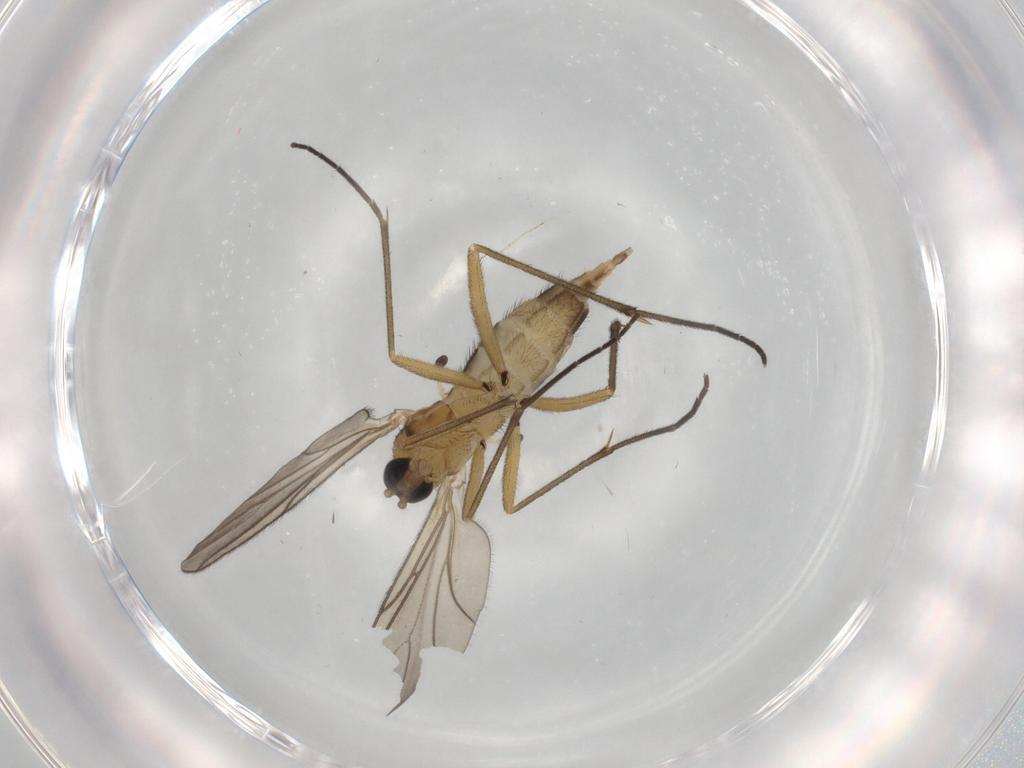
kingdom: Animalia
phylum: Arthropoda
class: Insecta
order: Diptera
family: Sciaridae
